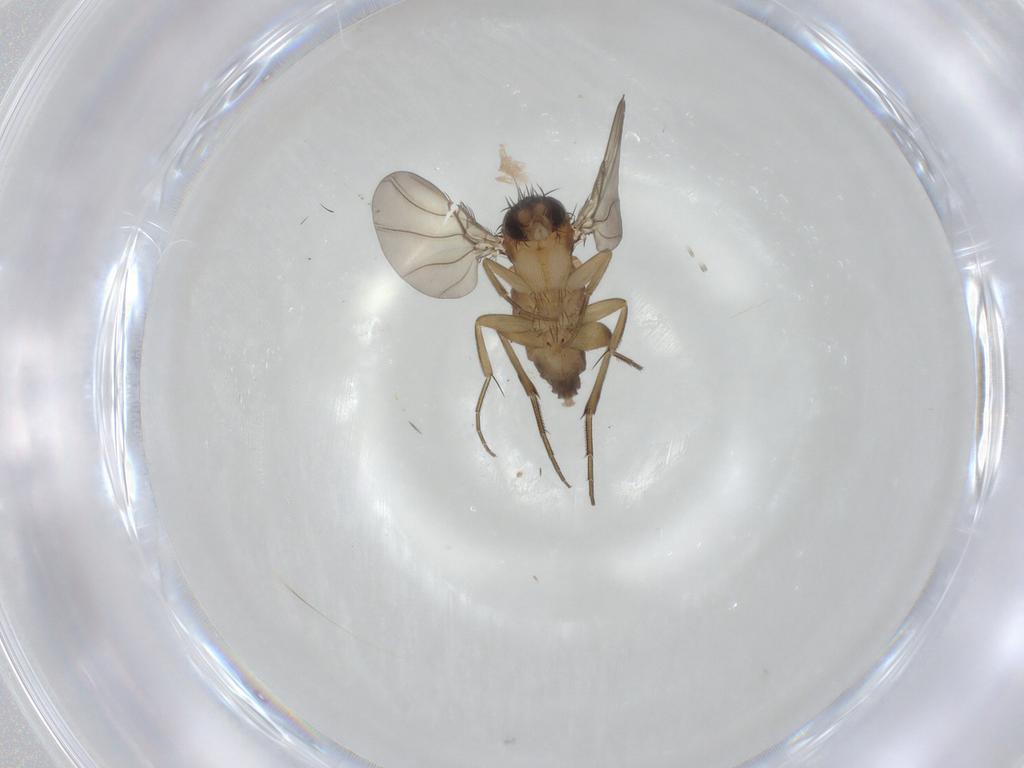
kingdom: Animalia
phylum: Arthropoda
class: Insecta
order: Diptera
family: Phoridae
